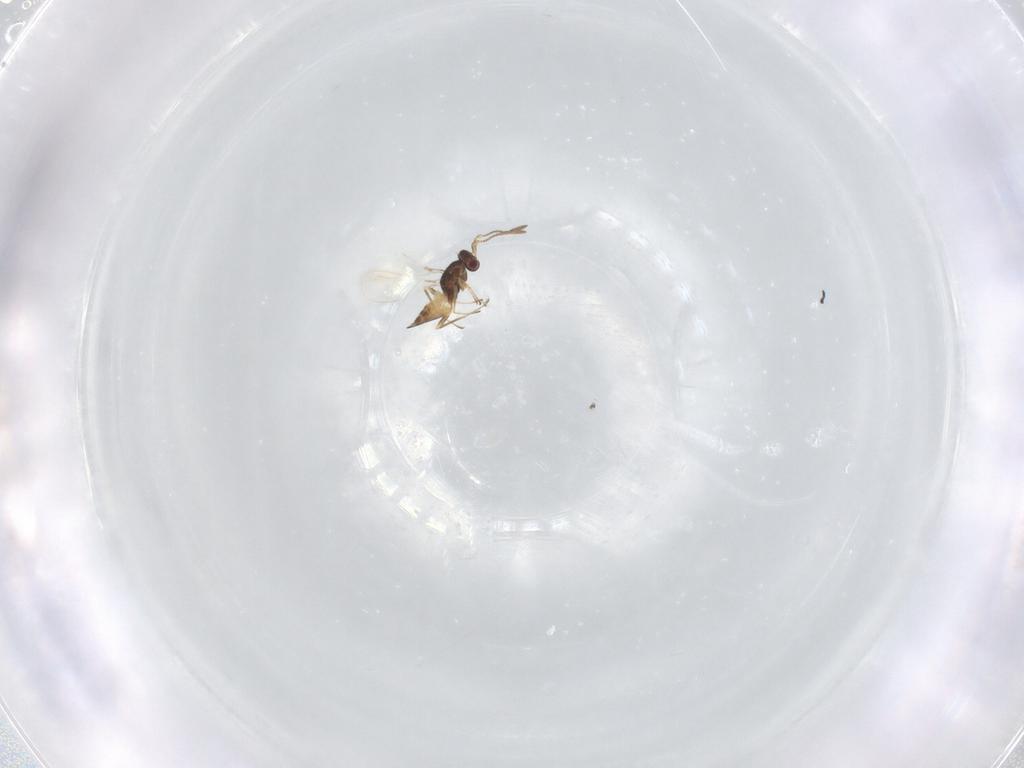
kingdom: Animalia
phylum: Arthropoda
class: Insecta
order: Hymenoptera
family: Mymaridae
